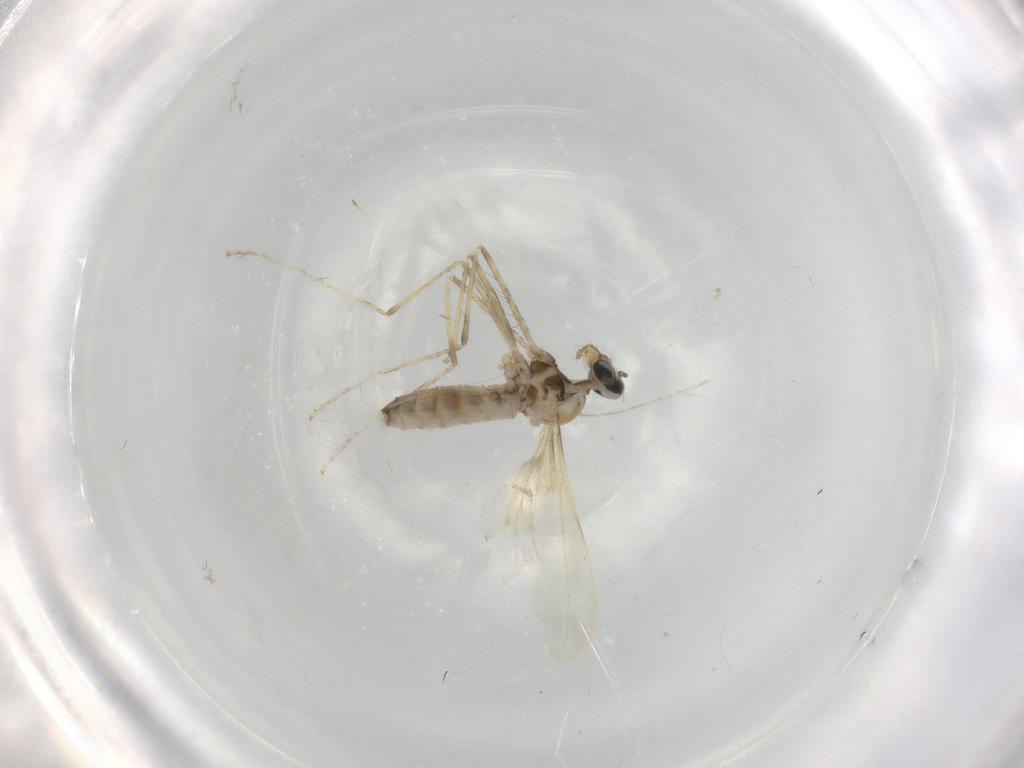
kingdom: Animalia
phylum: Arthropoda
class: Insecta
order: Diptera
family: Cecidomyiidae
